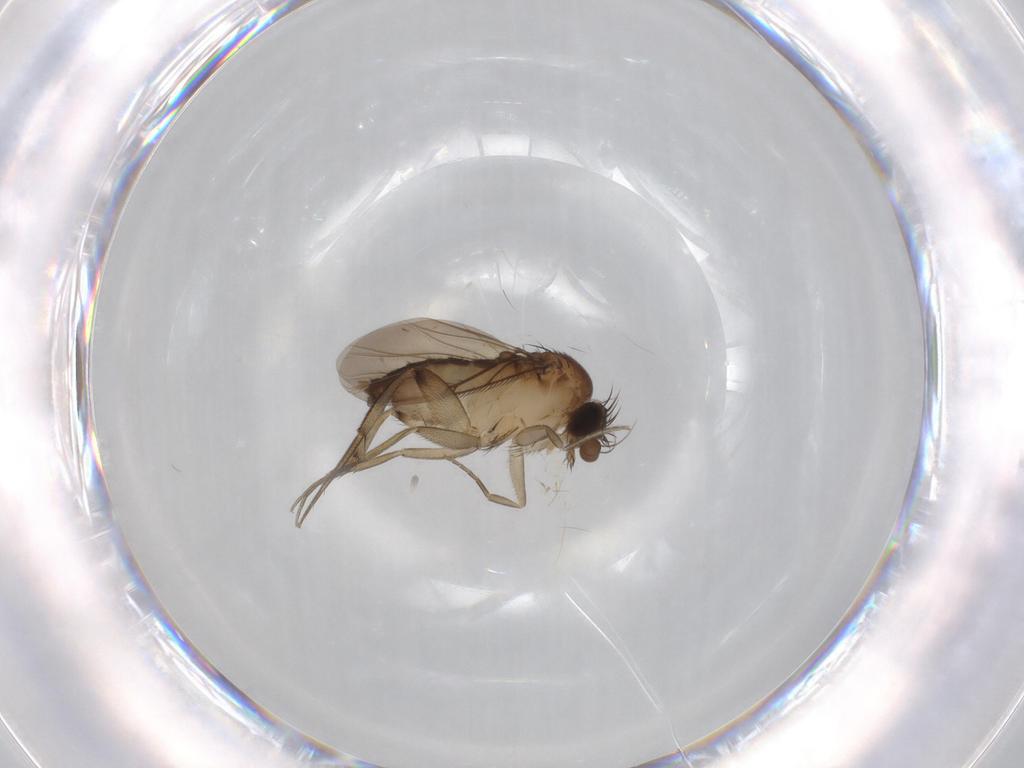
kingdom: Animalia
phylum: Arthropoda
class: Insecta
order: Diptera
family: Phoridae
